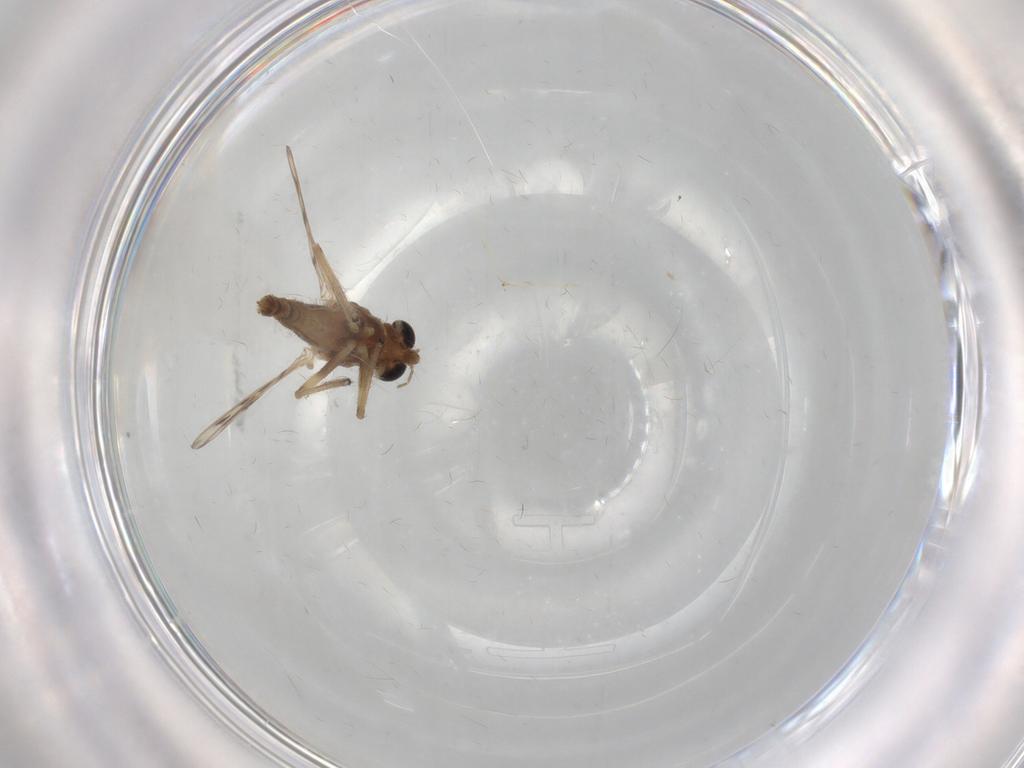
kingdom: Animalia
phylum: Arthropoda
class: Insecta
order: Diptera
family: Chironomidae
